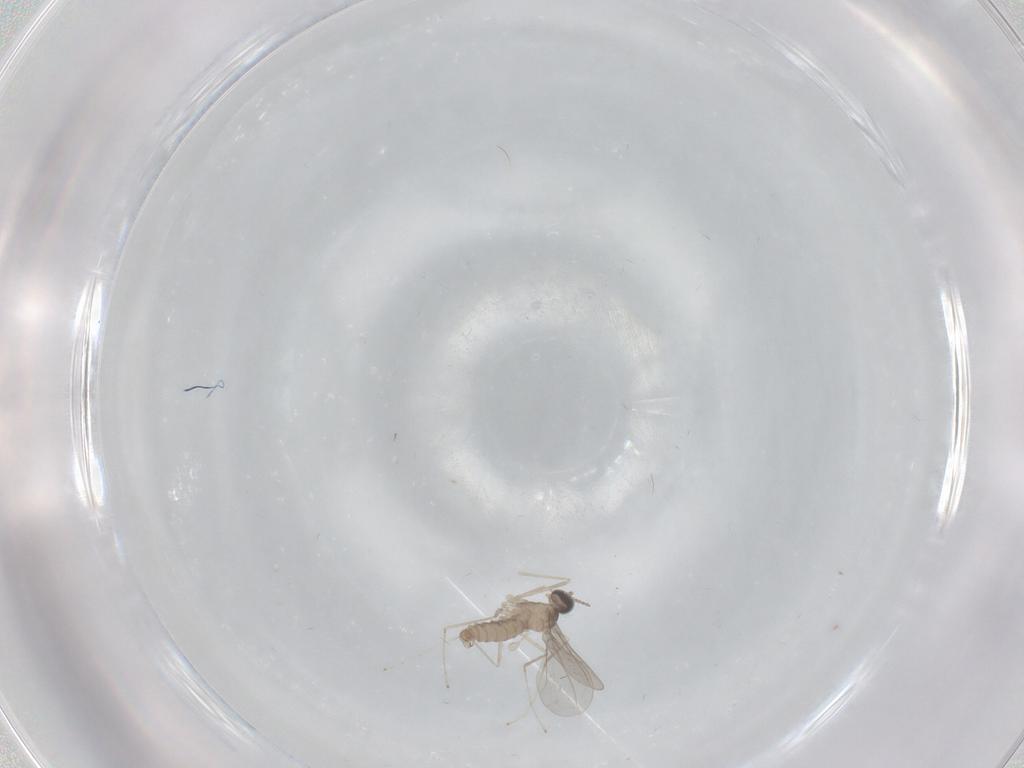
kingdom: Animalia
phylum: Arthropoda
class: Insecta
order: Diptera
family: Cecidomyiidae
